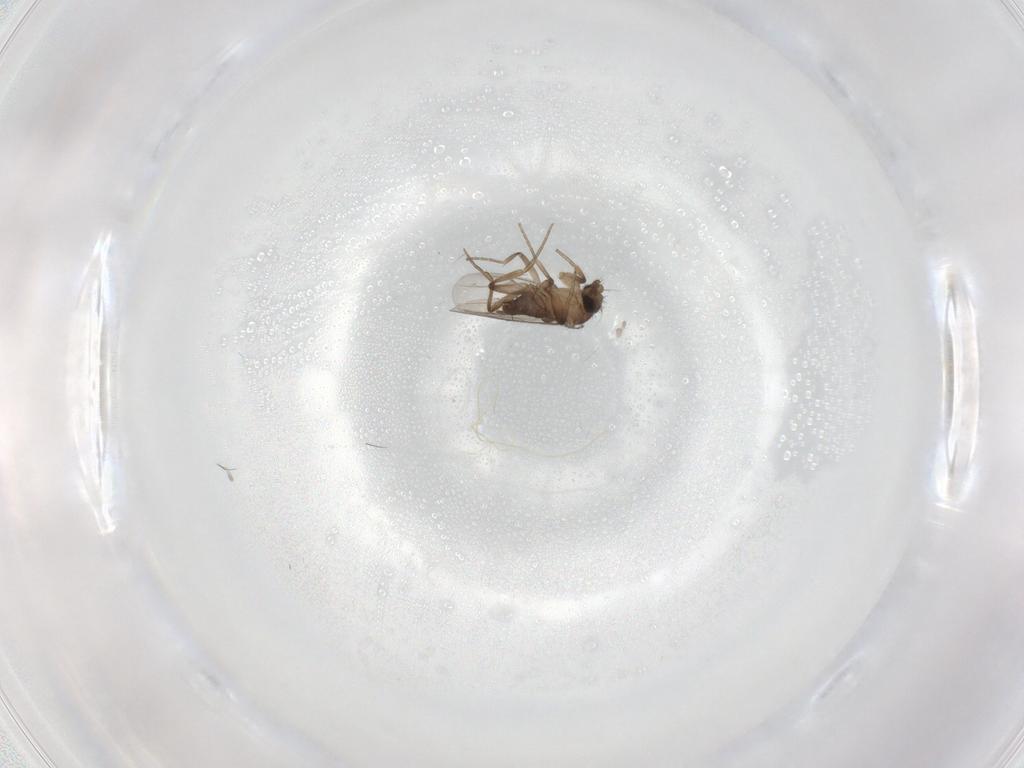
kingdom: Animalia
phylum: Arthropoda
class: Insecta
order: Diptera
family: Phoridae
